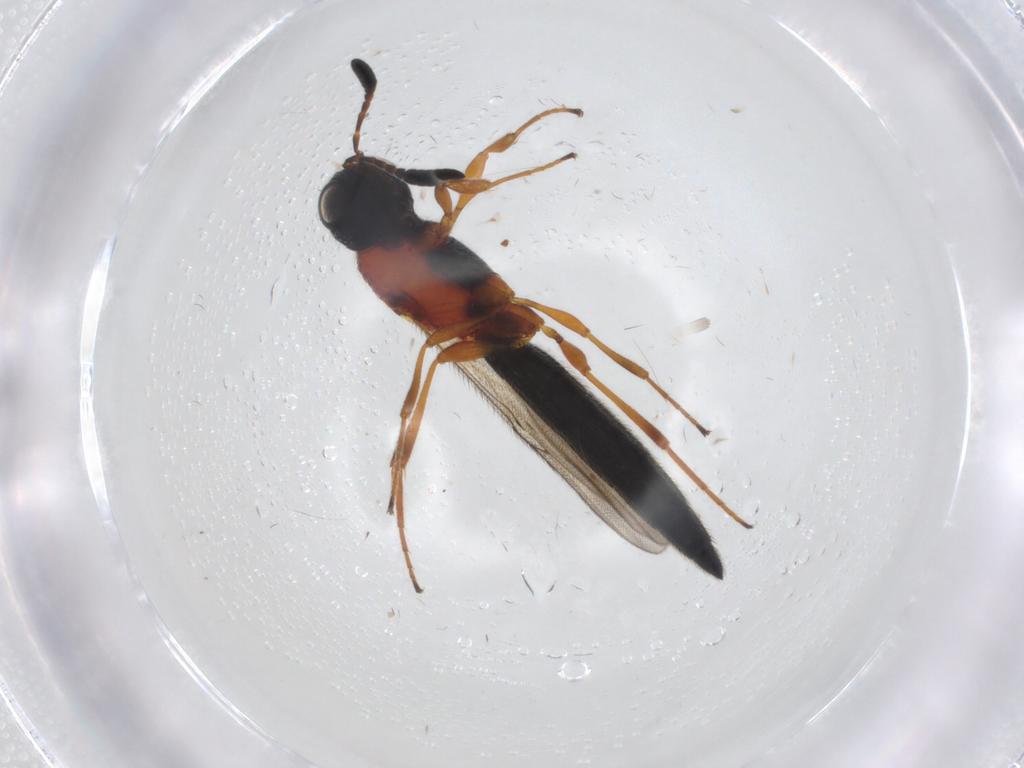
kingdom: Animalia
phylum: Arthropoda
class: Insecta
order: Hymenoptera
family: Scelionidae
